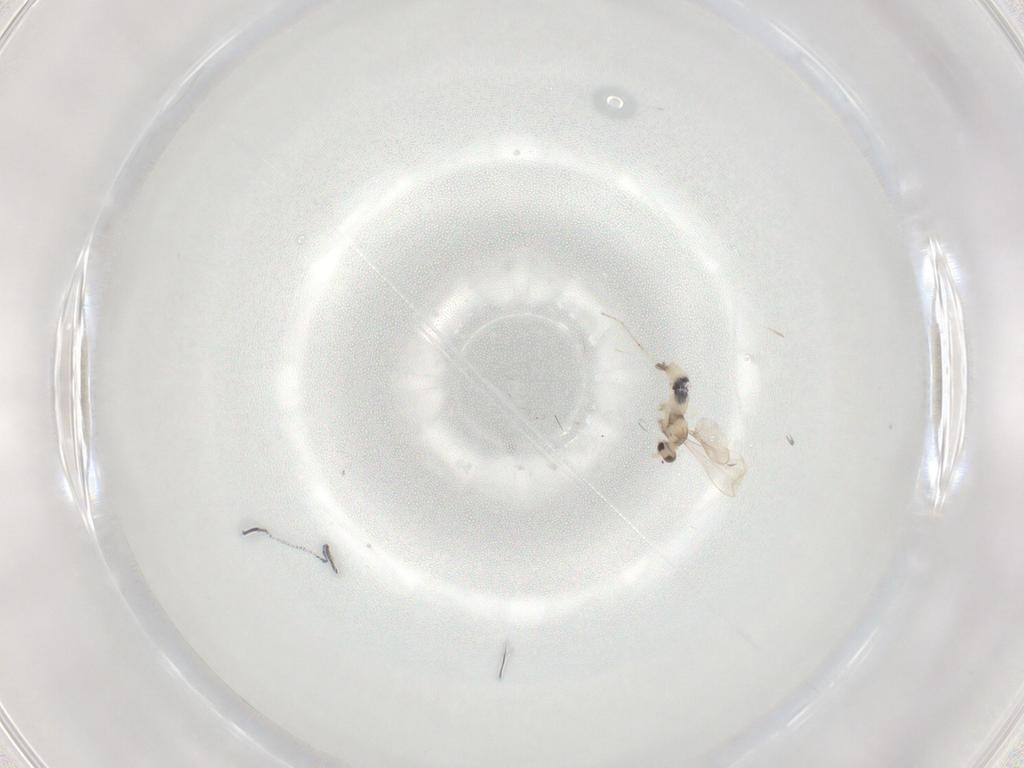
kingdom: Animalia
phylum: Arthropoda
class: Insecta
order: Diptera
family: Cecidomyiidae
